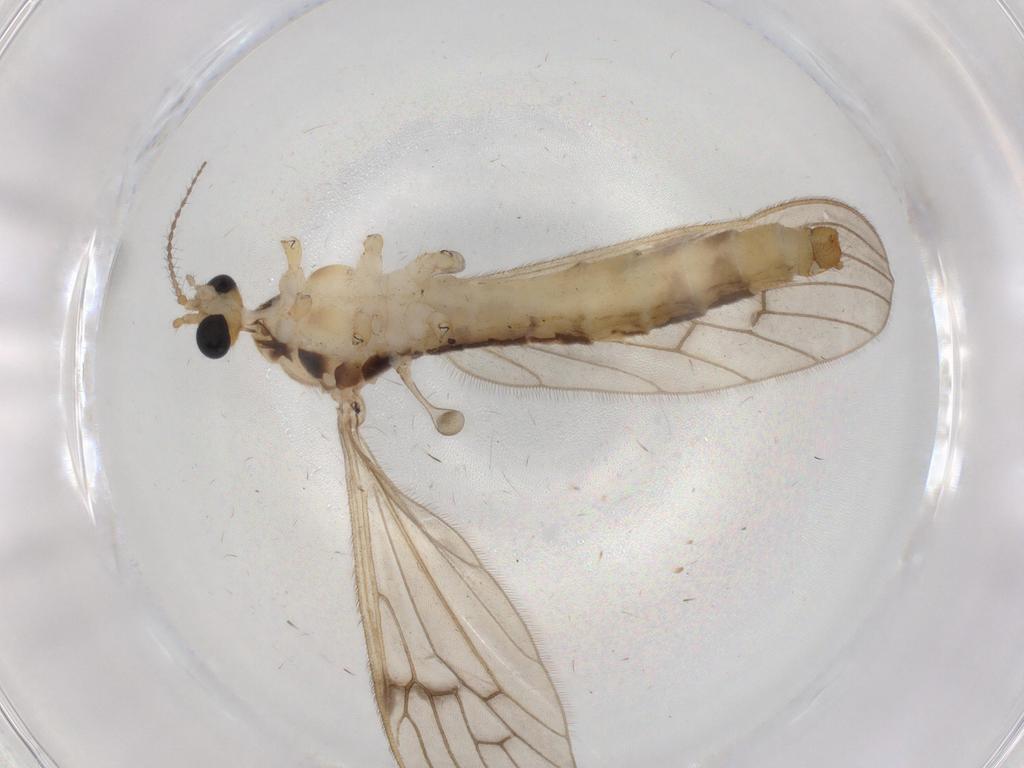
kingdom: Animalia
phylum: Arthropoda
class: Insecta
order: Diptera
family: Limoniidae
